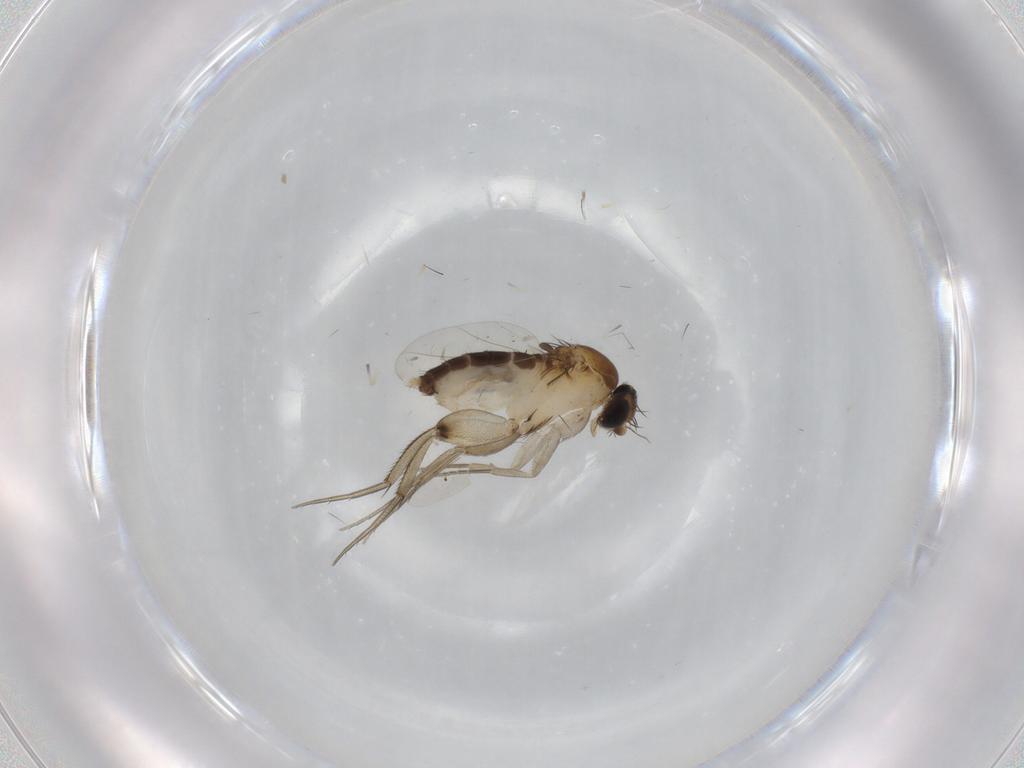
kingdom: Animalia
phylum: Arthropoda
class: Insecta
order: Diptera
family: Phoridae
